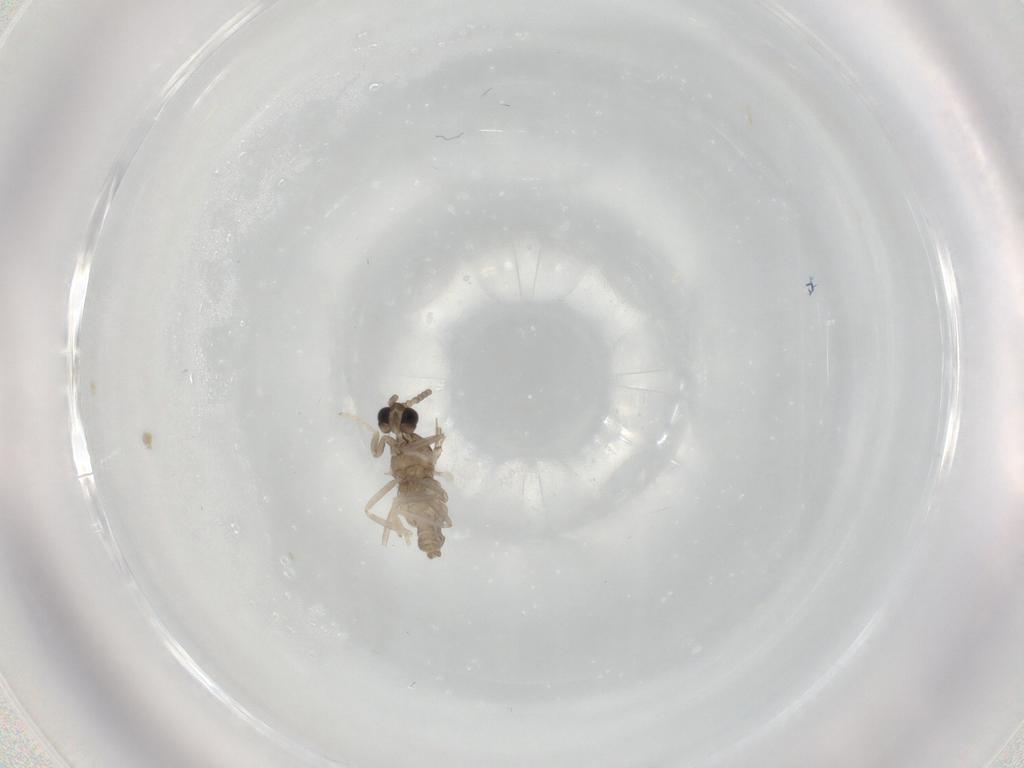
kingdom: Animalia
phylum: Arthropoda
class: Insecta
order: Diptera
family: Cecidomyiidae
